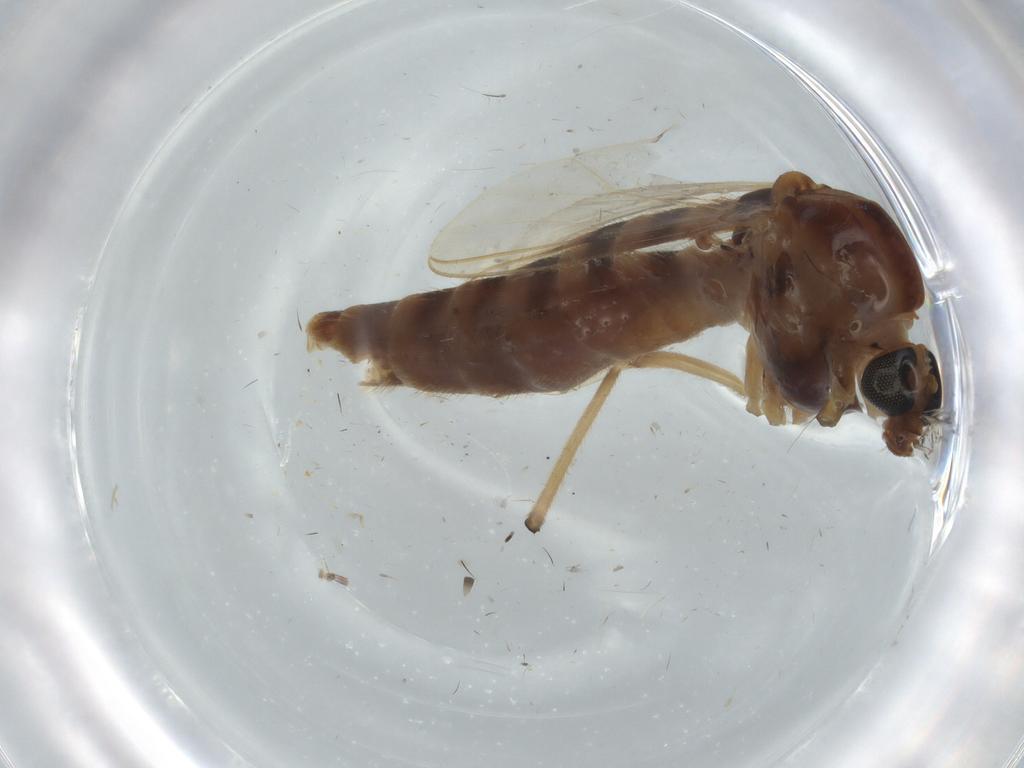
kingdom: Animalia
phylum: Arthropoda
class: Insecta
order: Diptera
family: Chironomidae
